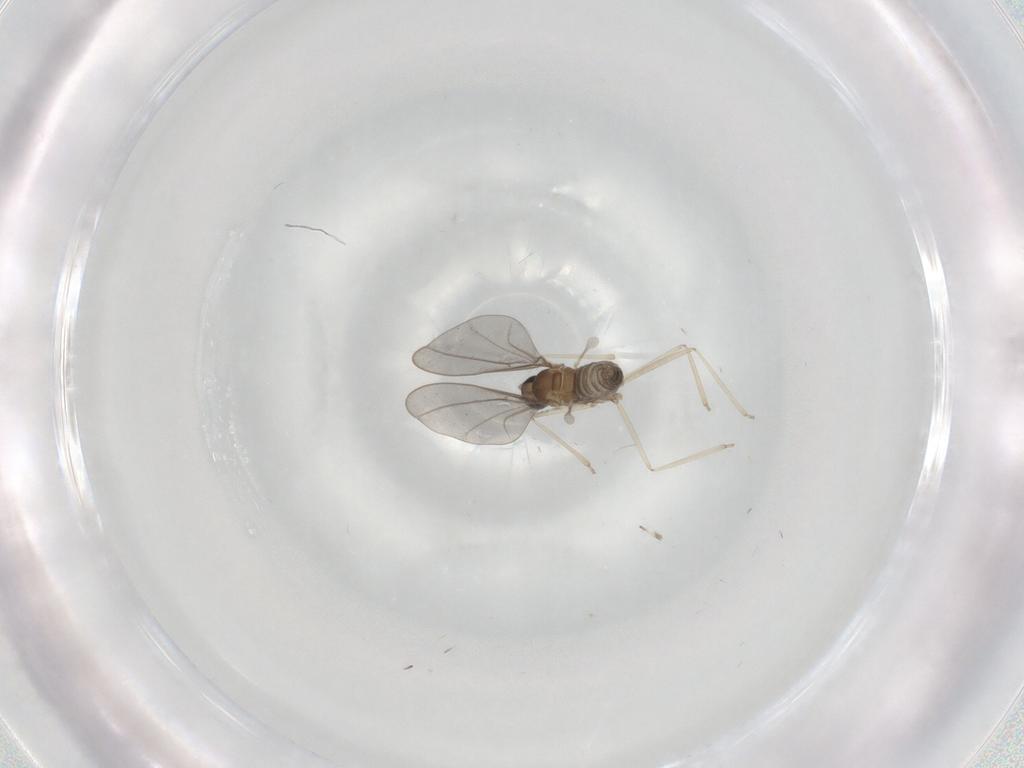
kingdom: Animalia
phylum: Arthropoda
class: Insecta
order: Diptera
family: Cecidomyiidae
